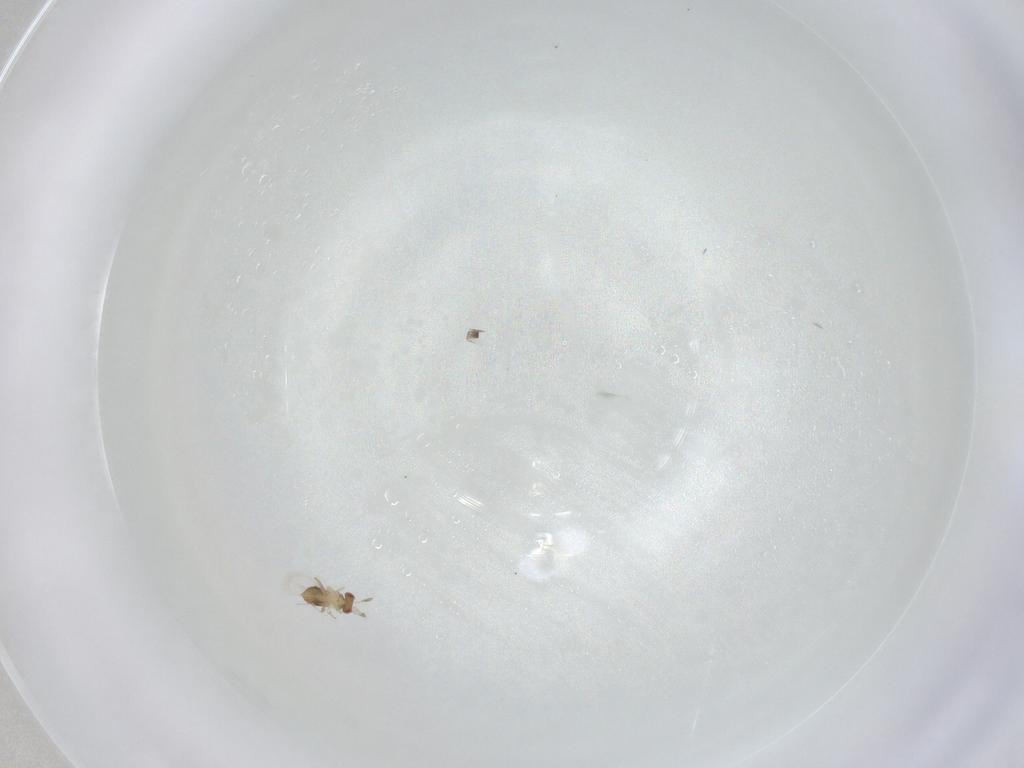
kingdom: Animalia
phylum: Arthropoda
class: Insecta
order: Hymenoptera
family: Trichogrammatidae
